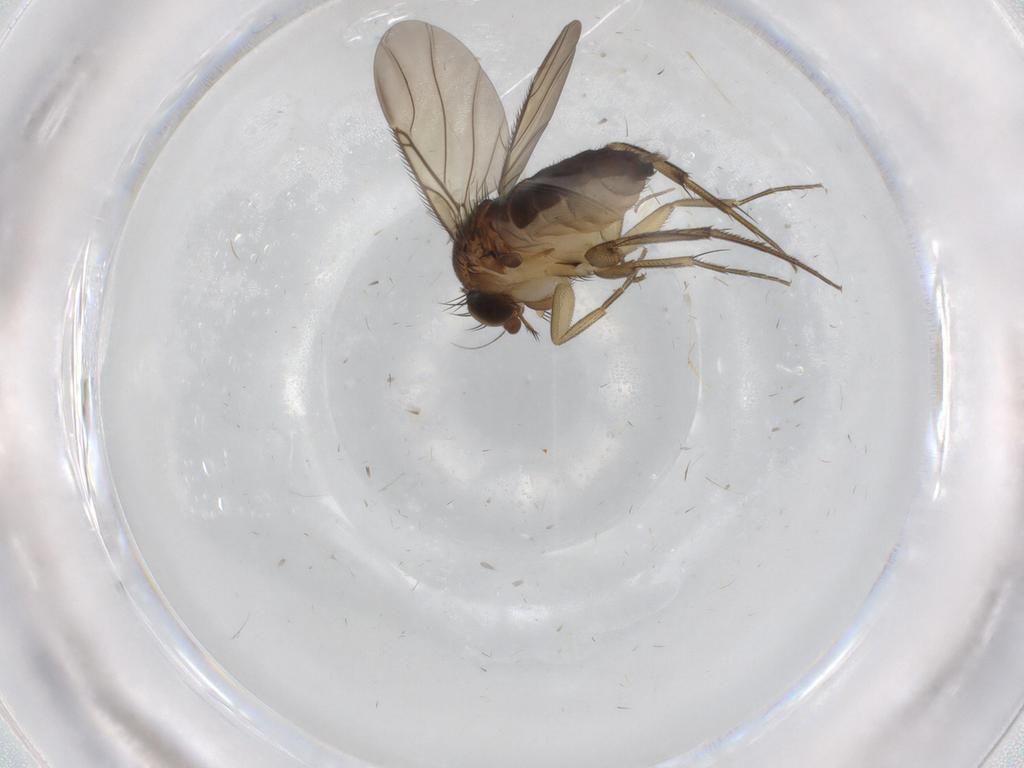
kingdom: Animalia
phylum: Arthropoda
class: Insecta
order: Diptera
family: Phoridae
